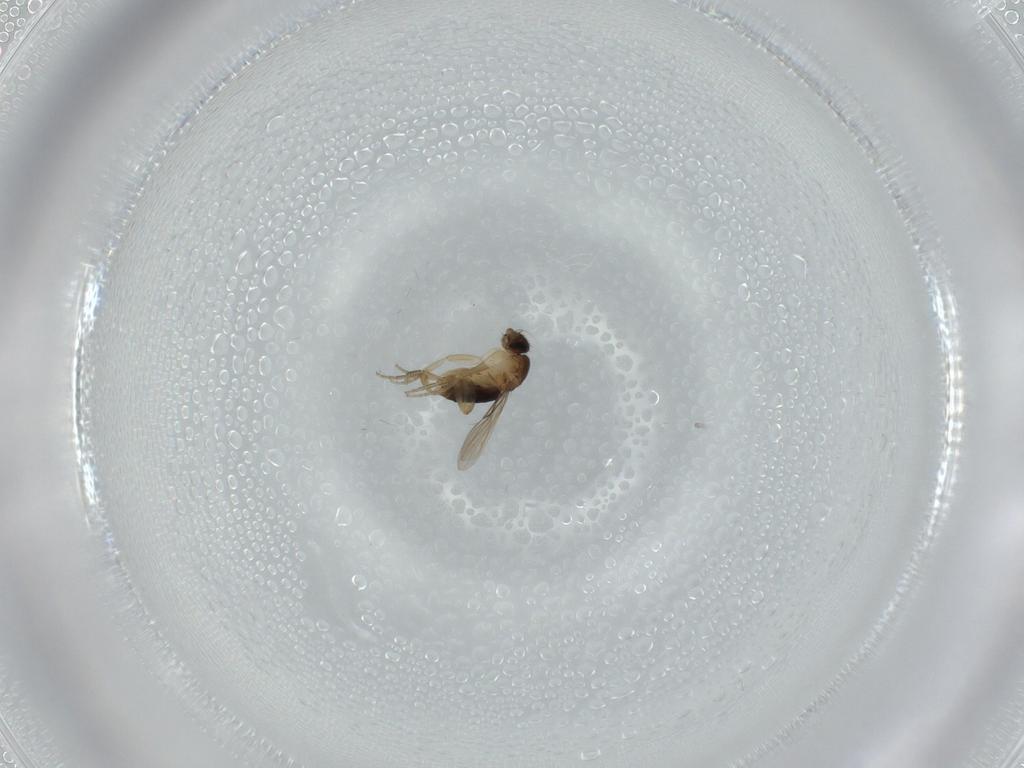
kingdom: Animalia
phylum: Arthropoda
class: Insecta
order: Diptera
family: Phoridae
